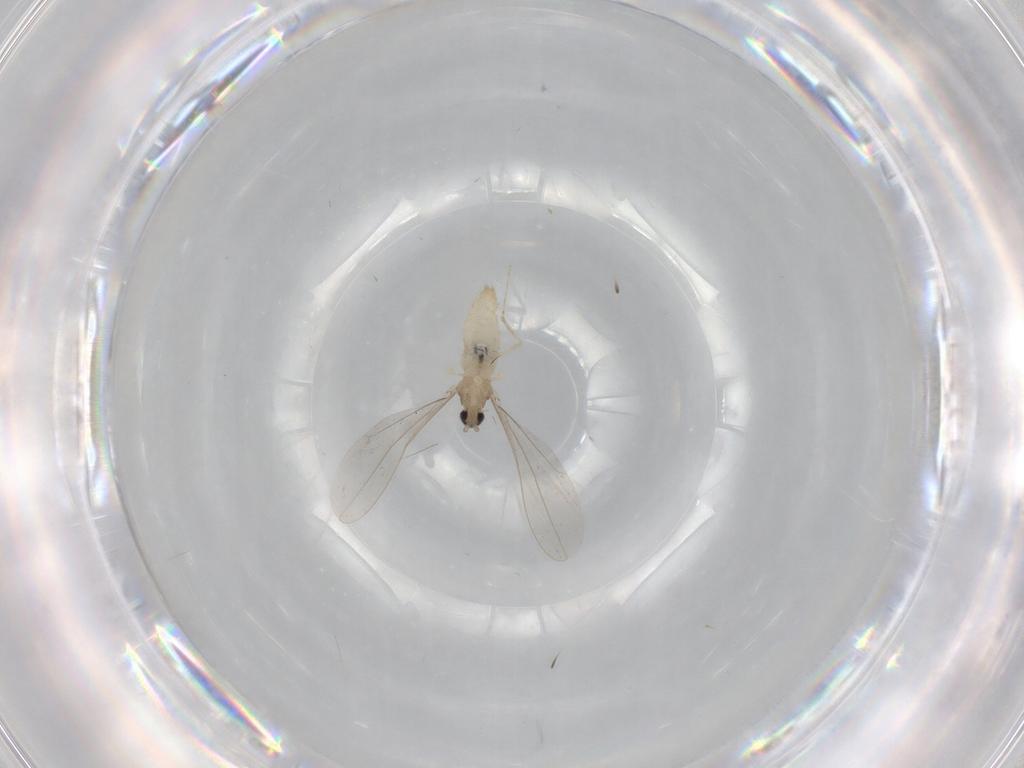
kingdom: Animalia
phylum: Arthropoda
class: Insecta
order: Diptera
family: Cecidomyiidae
